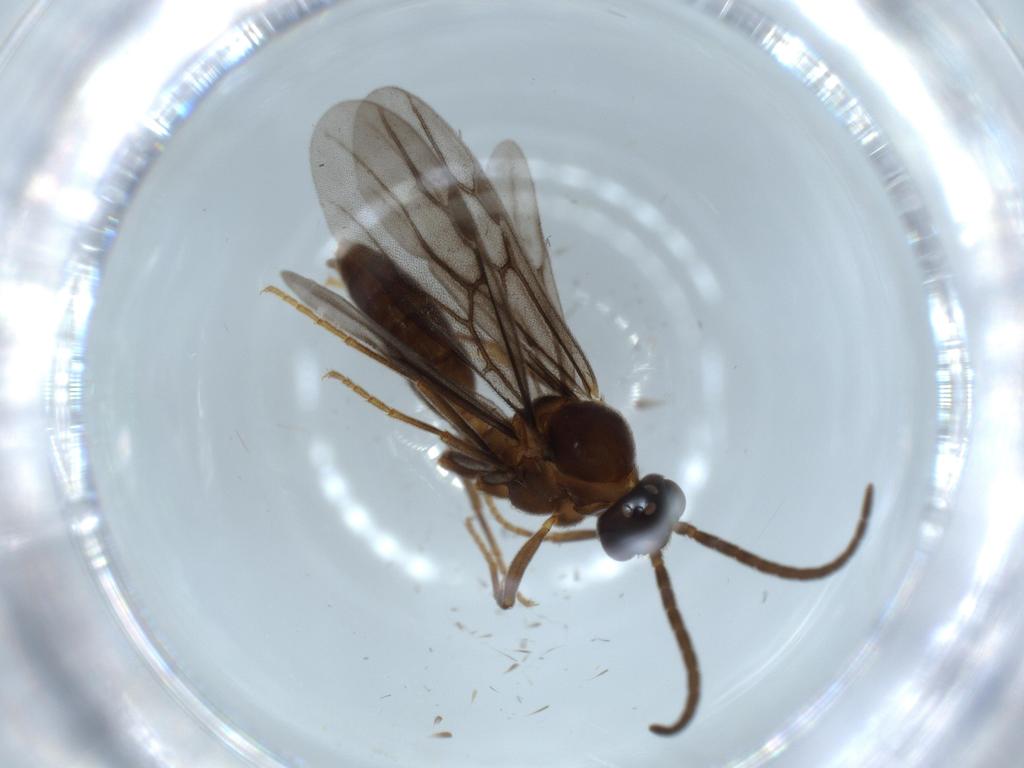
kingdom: Animalia
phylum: Arthropoda
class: Insecta
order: Hymenoptera
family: Formicidae
